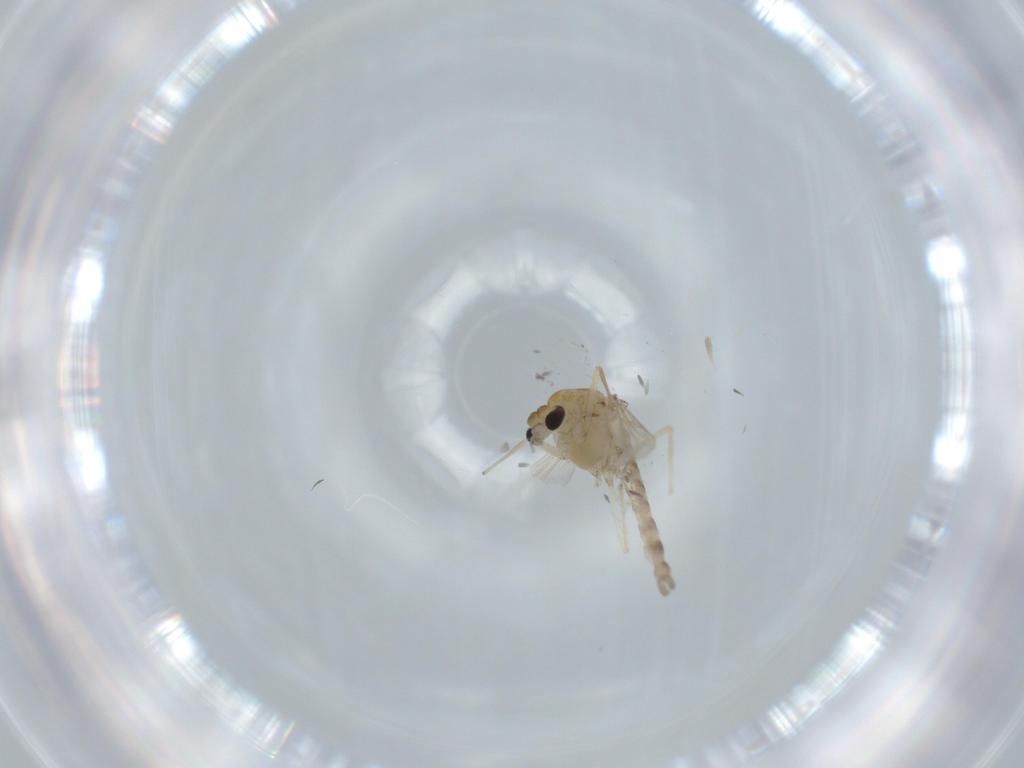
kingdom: Animalia
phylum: Arthropoda
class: Insecta
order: Diptera
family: Chironomidae
